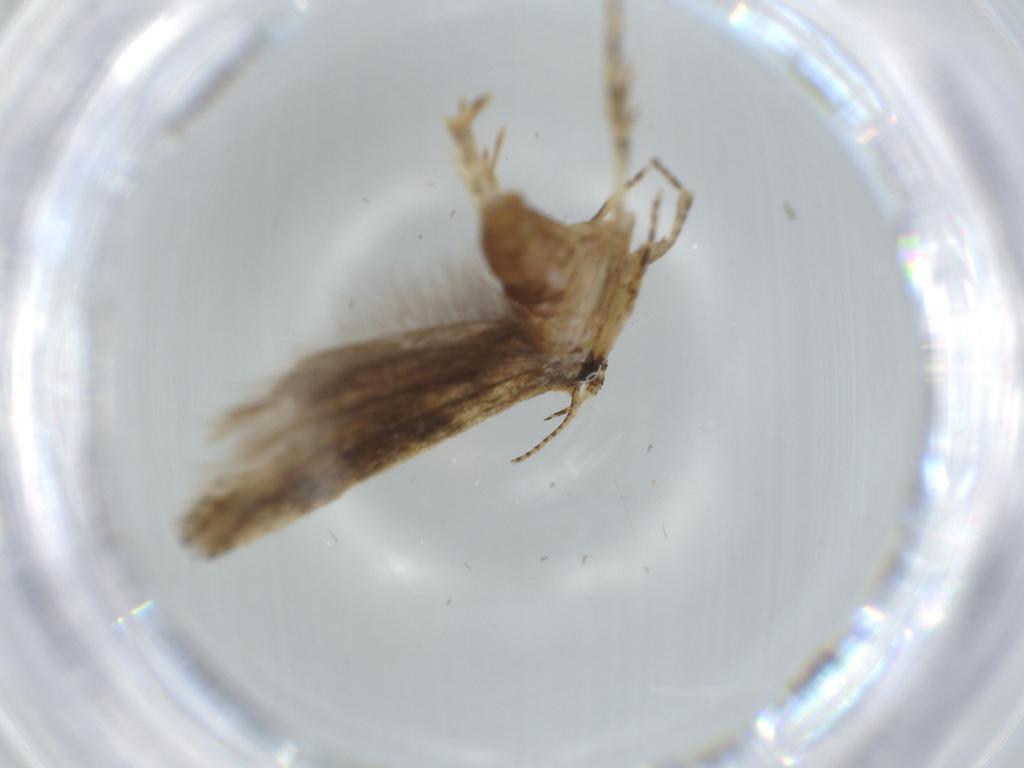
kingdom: Animalia
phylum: Arthropoda
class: Insecta
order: Lepidoptera
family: Gelechiidae
